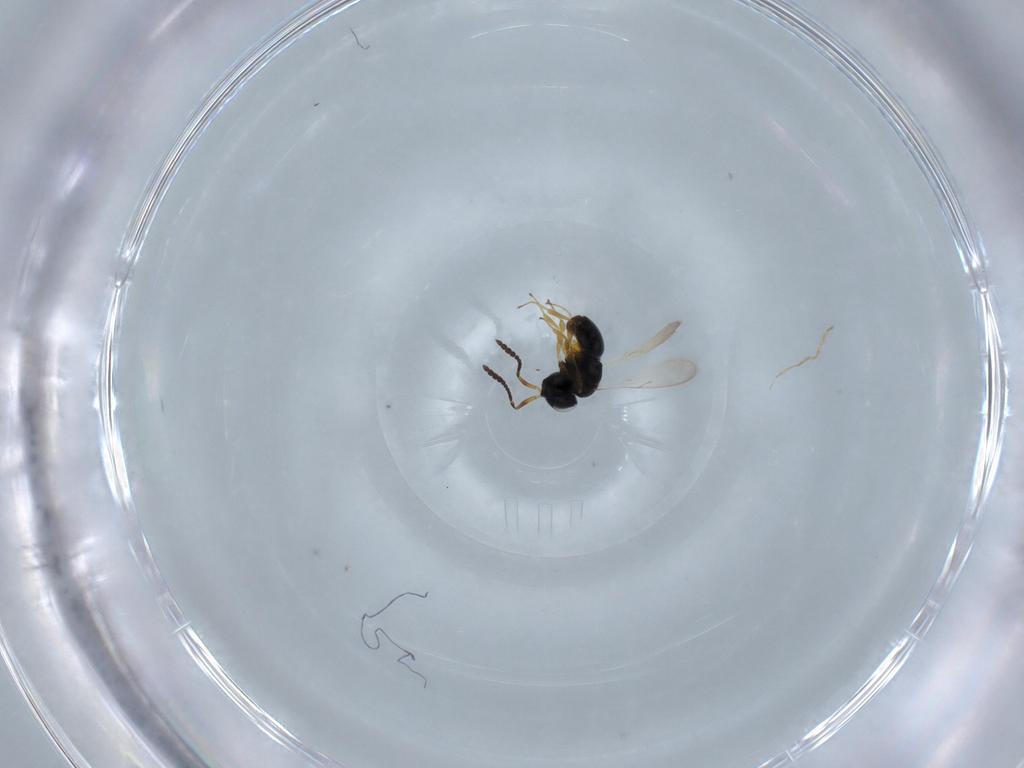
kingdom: Animalia
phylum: Arthropoda
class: Insecta
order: Hymenoptera
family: Scelionidae
